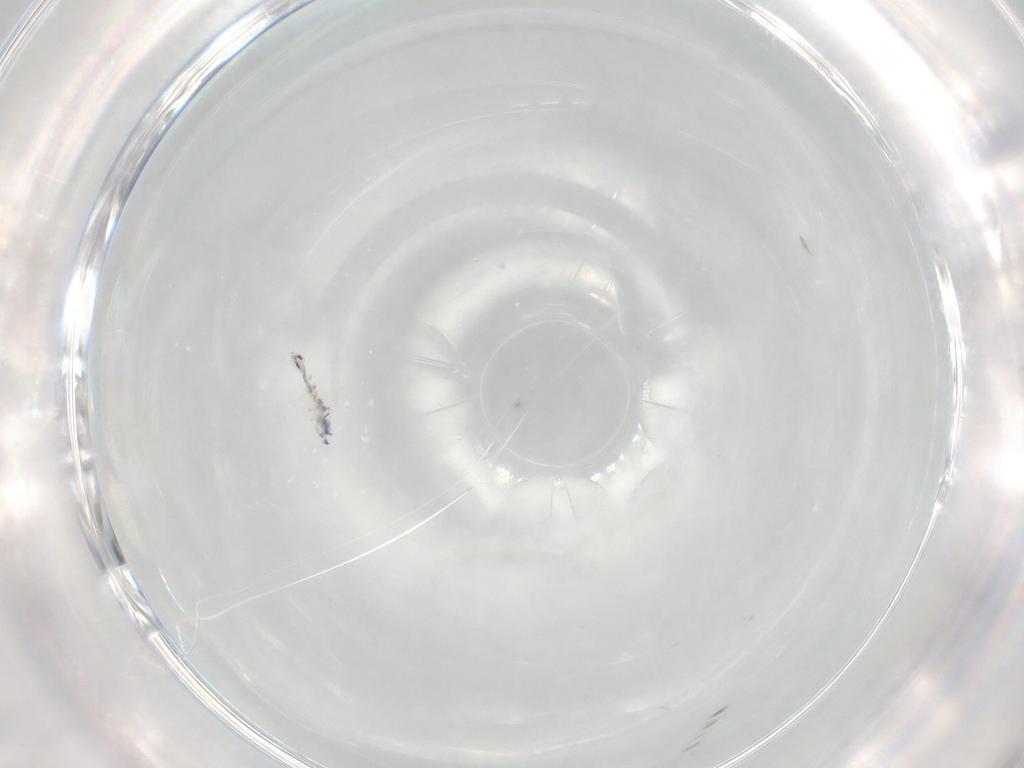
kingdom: Animalia
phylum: Arthropoda
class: Collembola
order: Entomobryomorpha
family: Entomobryidae
